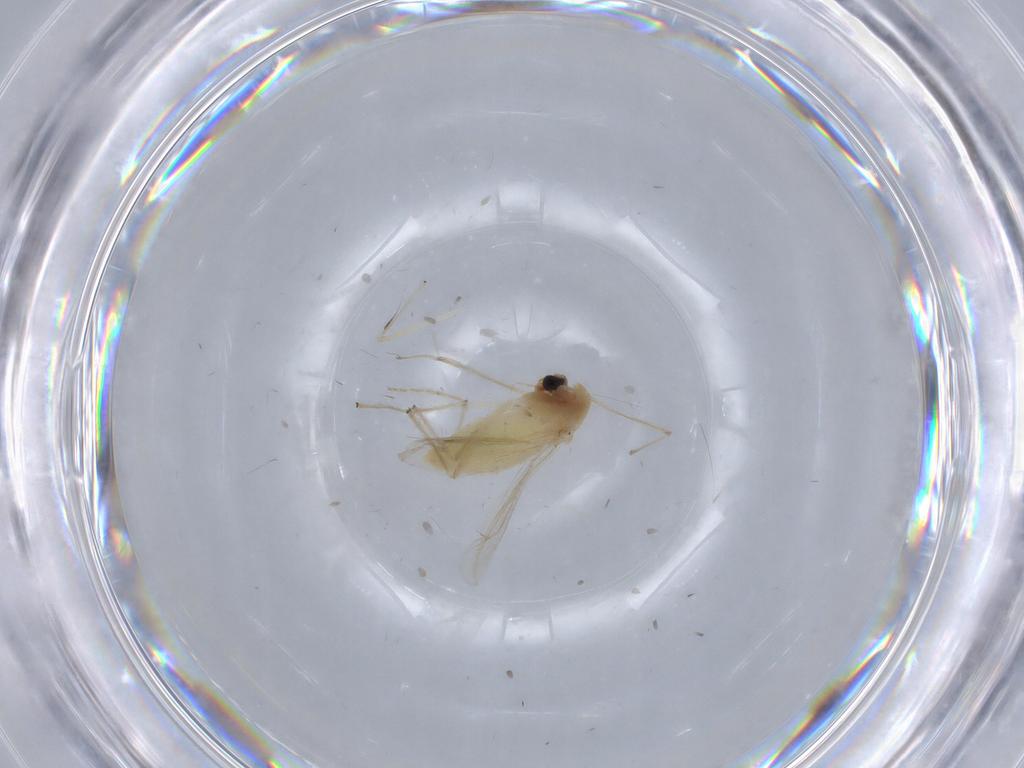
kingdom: Animalia
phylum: Arthropoda
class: Insecta
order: Diptera
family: Chironomidae
